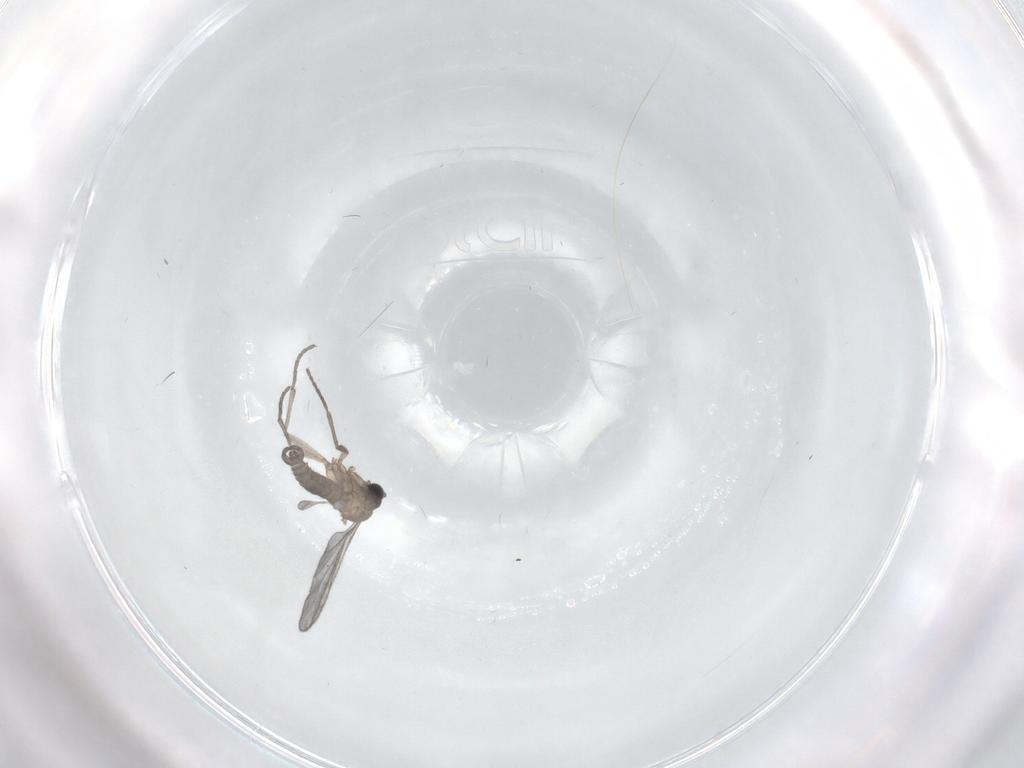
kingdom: Animalia
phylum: Arthropoda
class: Insecta
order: Diptera
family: Sciaridae
